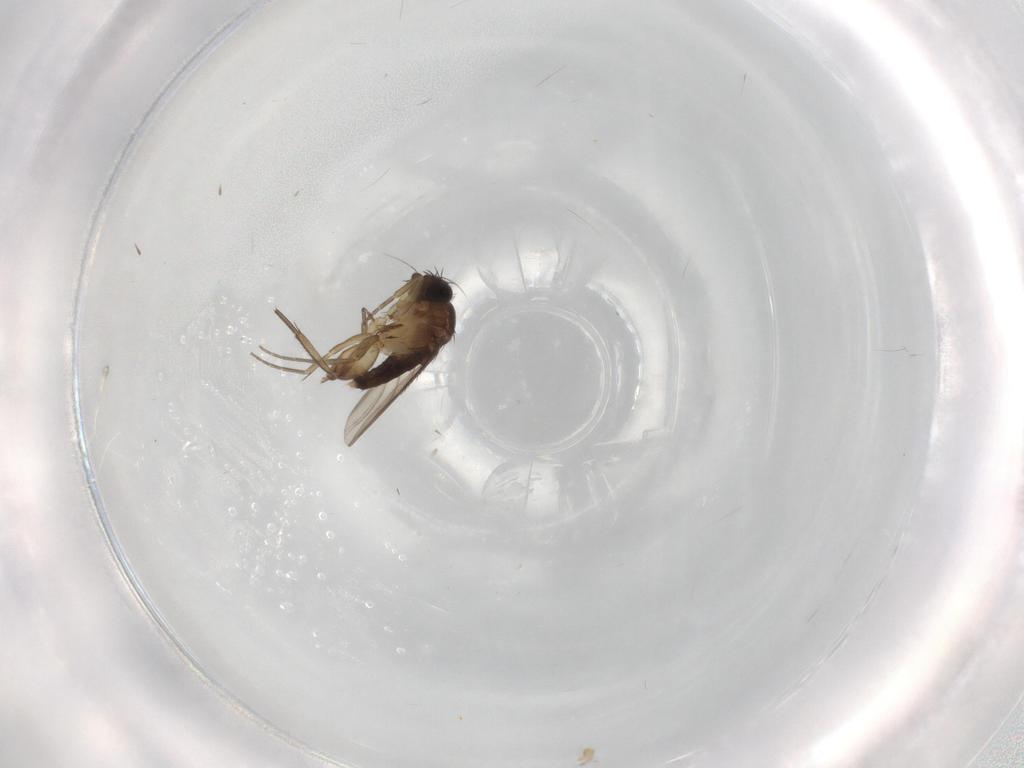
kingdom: Animalia
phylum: Arthropoda
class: Insecta
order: Diptera
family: Phoridae
